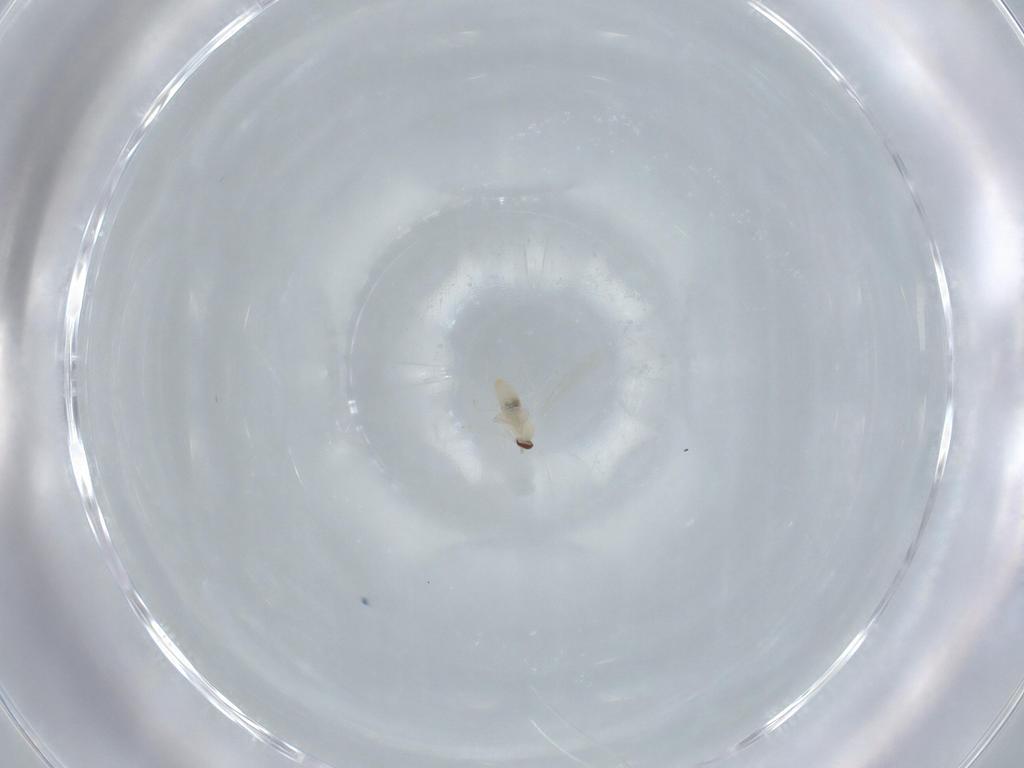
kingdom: Animalia
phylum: Arthropoda
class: Insecta
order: Diptera
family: Cecidomyiidae
